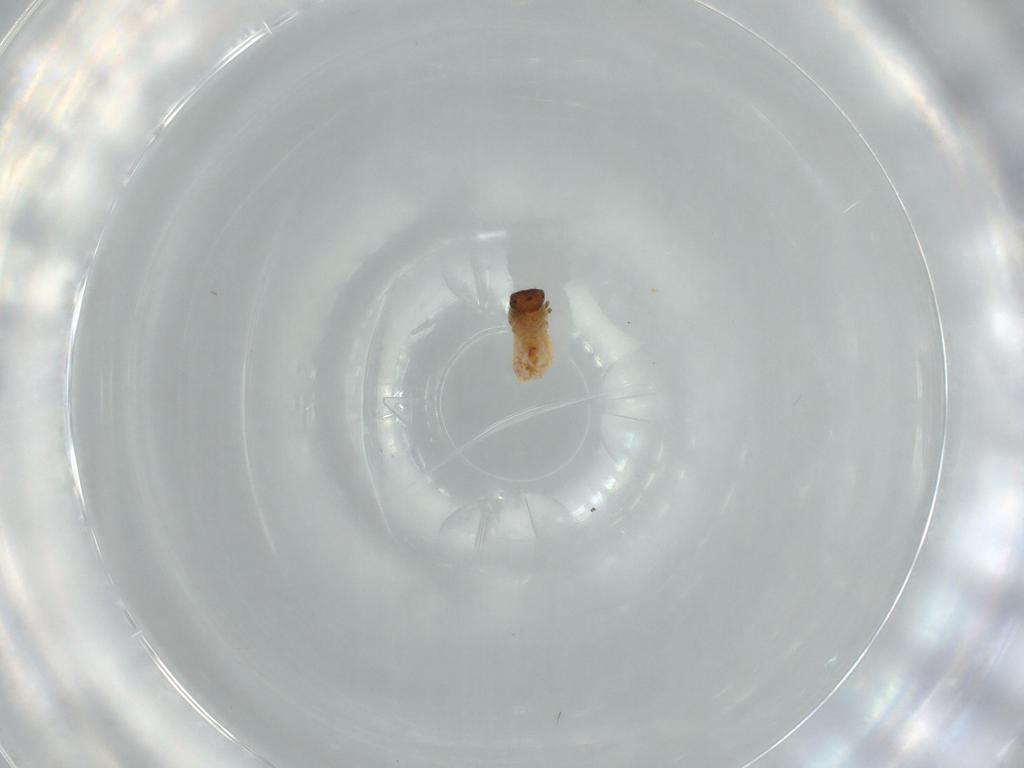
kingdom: Animalia
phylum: Arthropoda
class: Insecta
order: Coleoptera
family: Chrysomelidae
